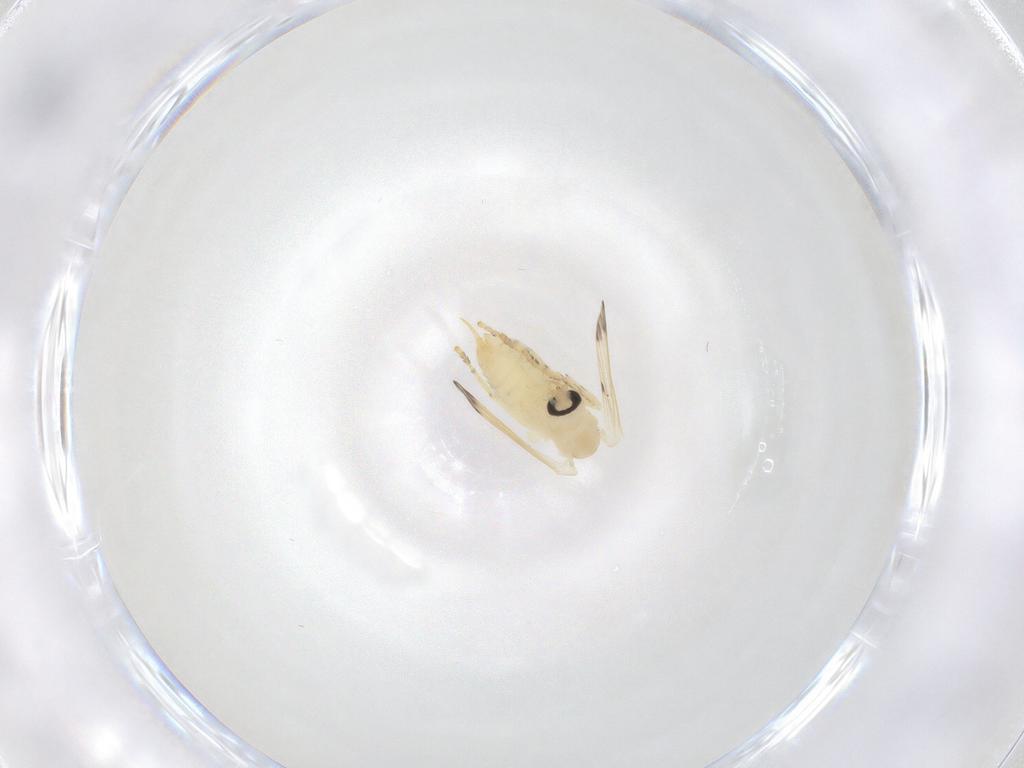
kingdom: Animalia
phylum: Arthropoda
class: Insecta
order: Diptera
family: Psychodidae
